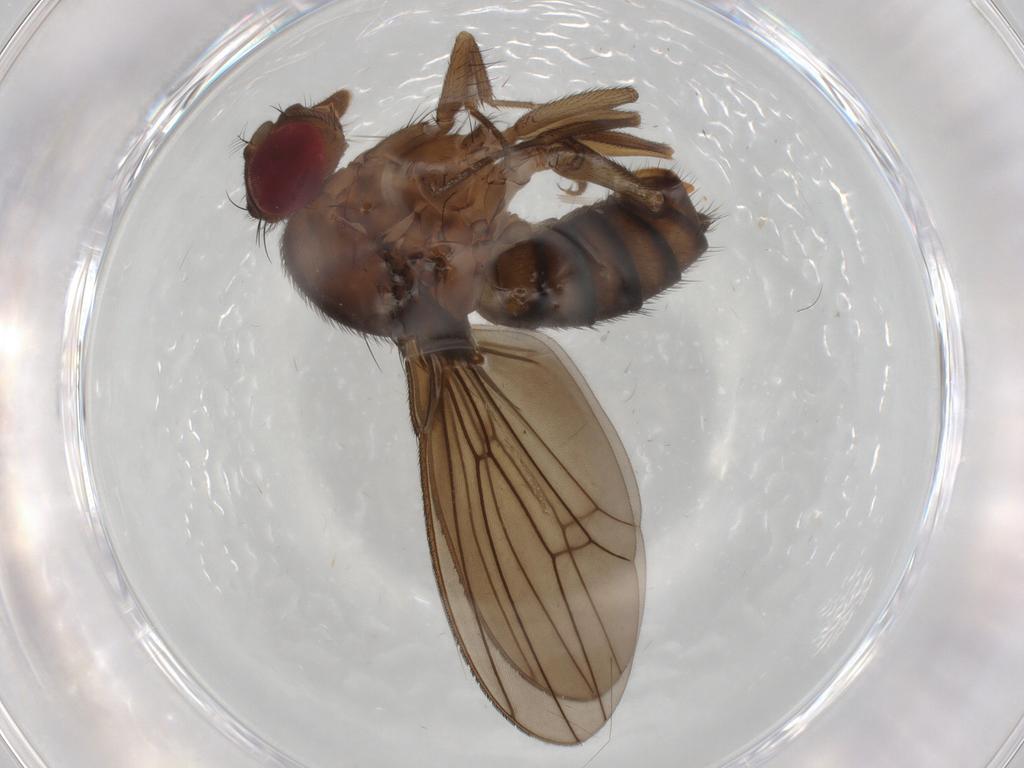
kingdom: Animalia
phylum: Arthropoda
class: Insecta
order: Diptera
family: Drosophilidae
